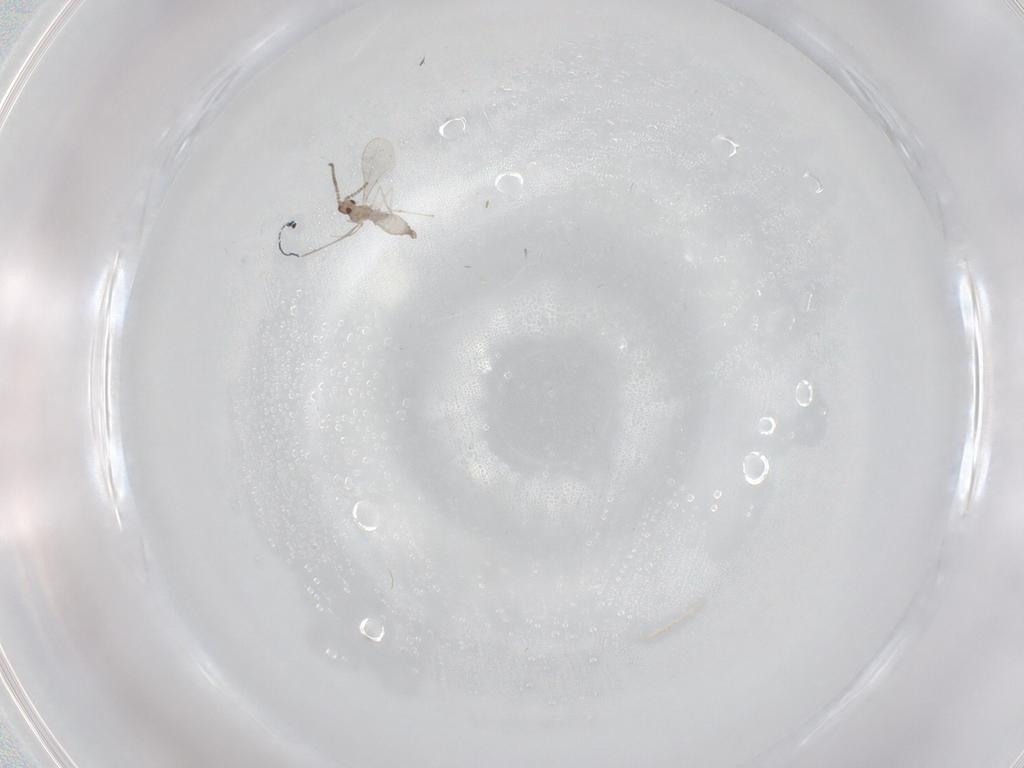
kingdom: Animalia
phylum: Arthropoda
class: Insecta
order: Diptera
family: Cecidomyiidae
